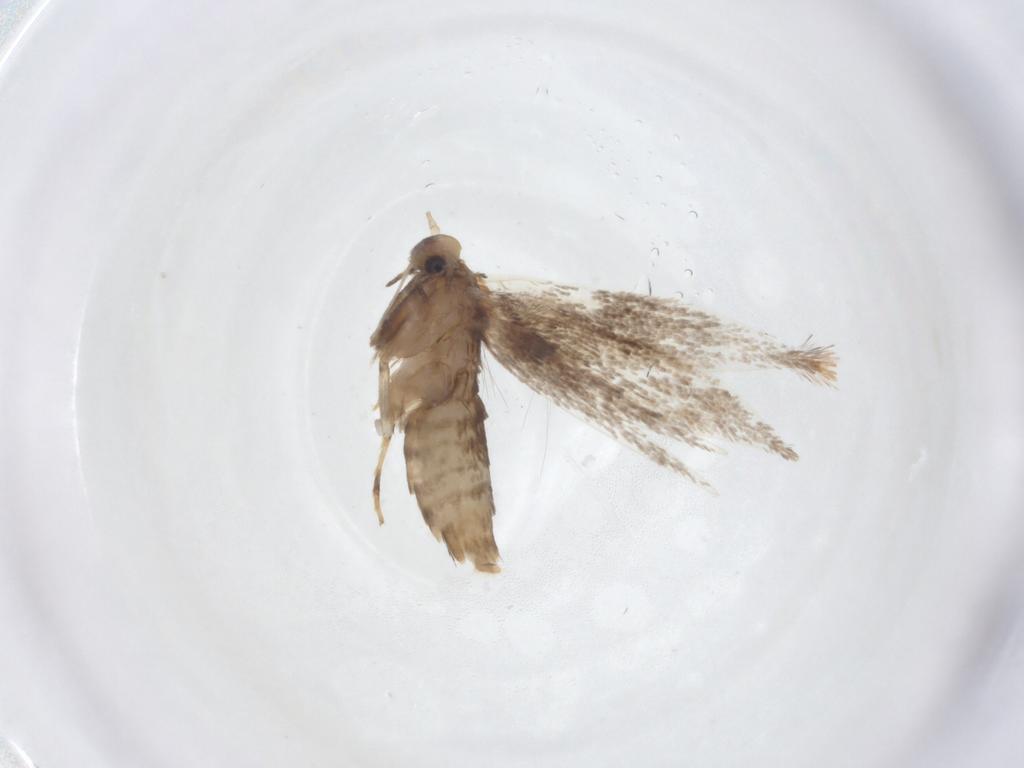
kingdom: Animalia
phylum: Arthropoda
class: Insecta
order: Lepidoptera
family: Gracillariidae
